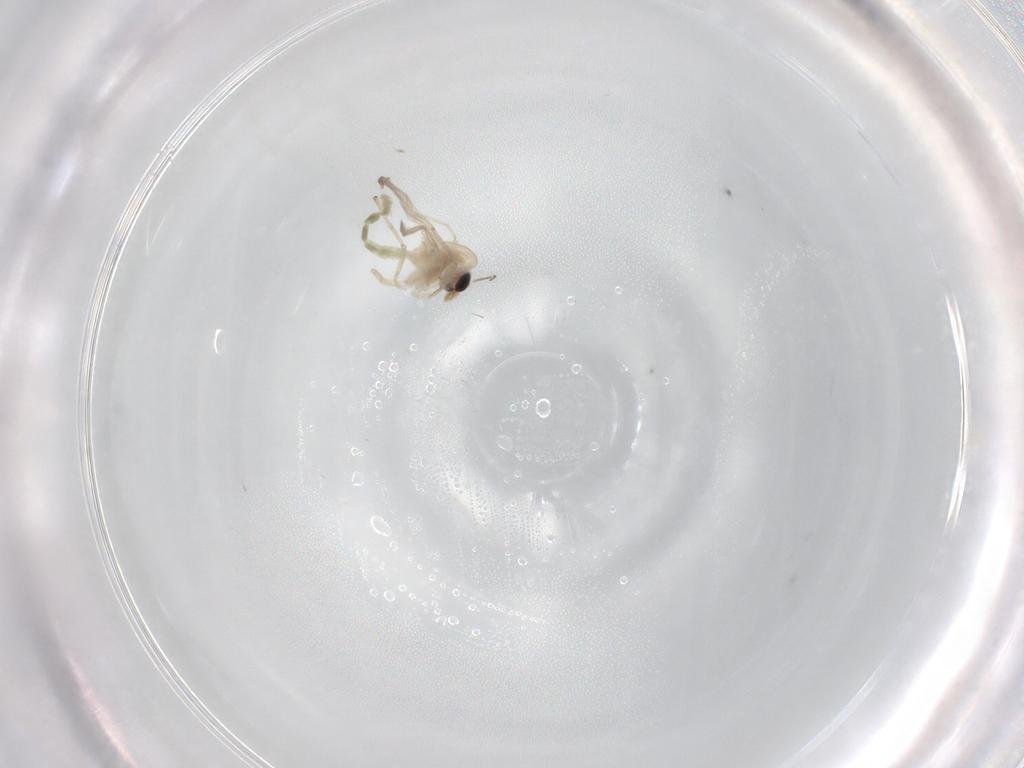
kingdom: Animalia
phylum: Arthropoda
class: Insecta
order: Diptera
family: Chironomidae
